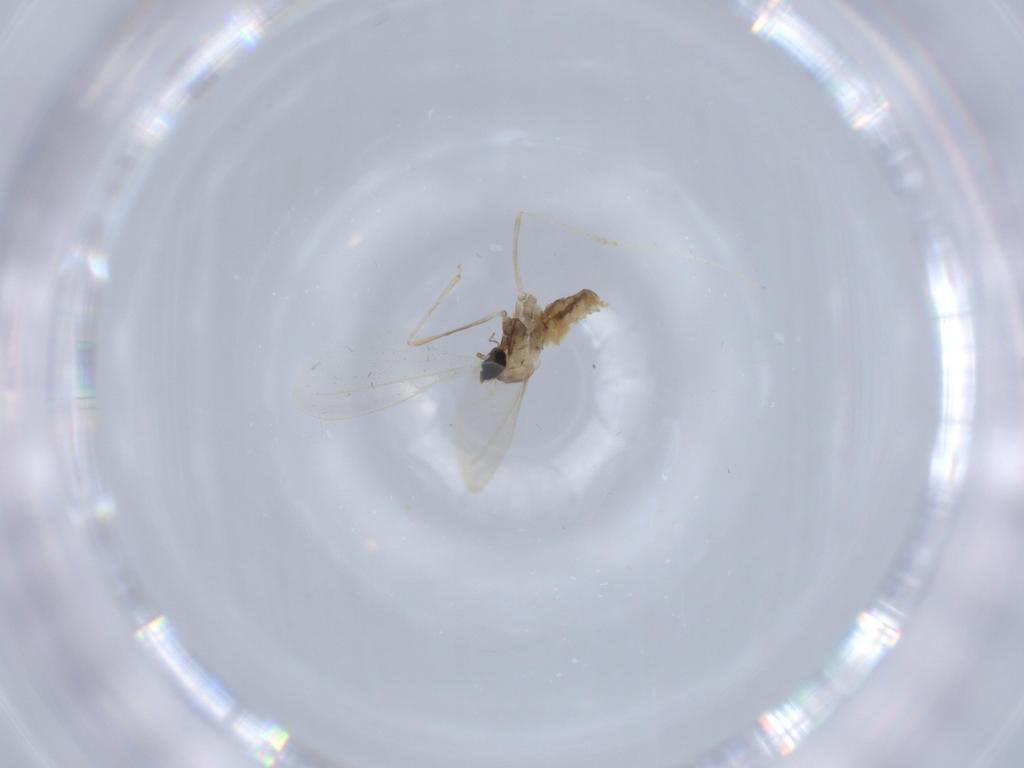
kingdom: Animalia
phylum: Arthropoda
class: Insecta
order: Diptera
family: Cecidomyiidae
